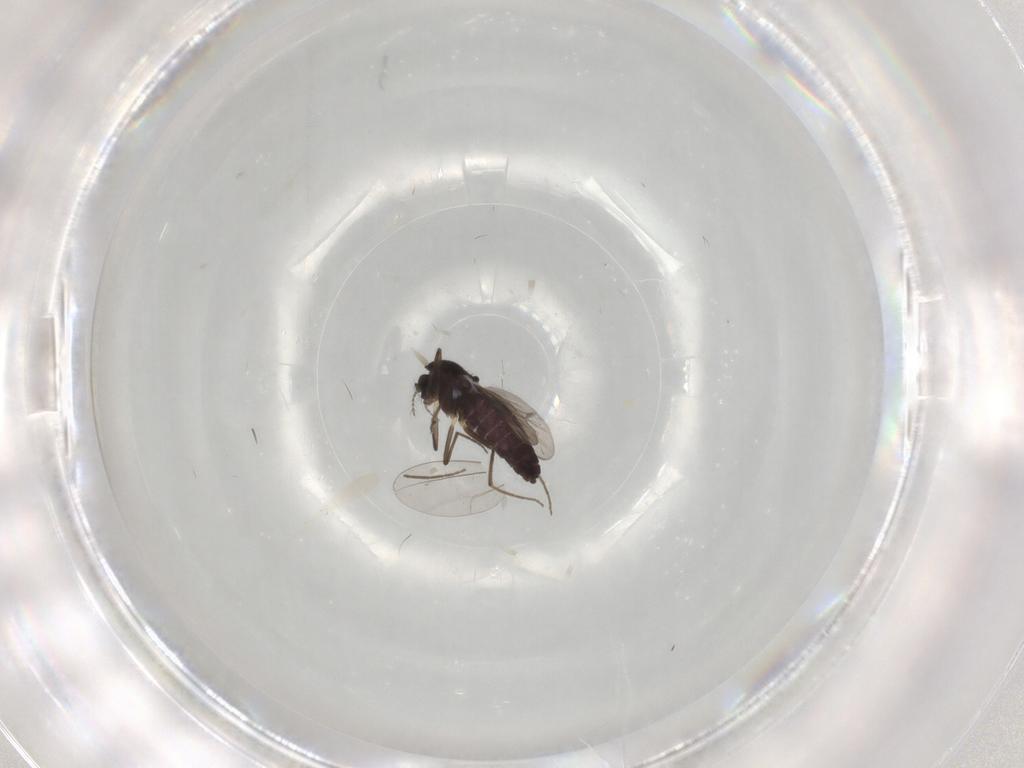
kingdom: Animalia
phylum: Arthropoda
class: Insecta
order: Diptera
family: Chironomidae
